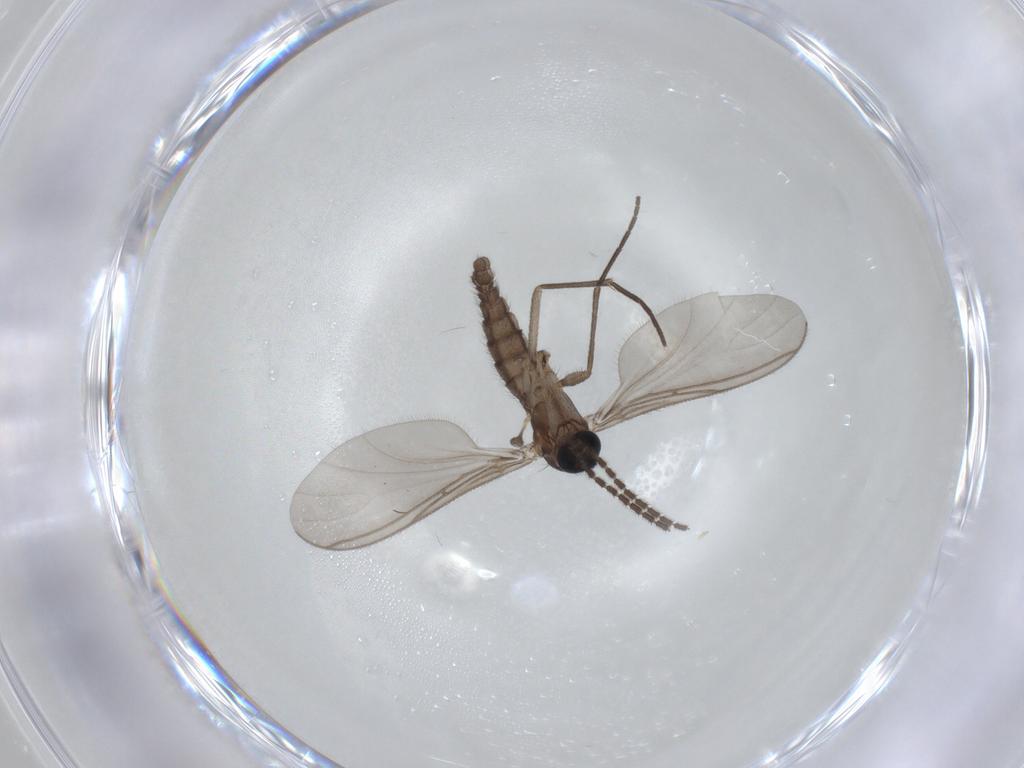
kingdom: Animalia
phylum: Arthropoda
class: Insecta
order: Diptera
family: Sciaridae
